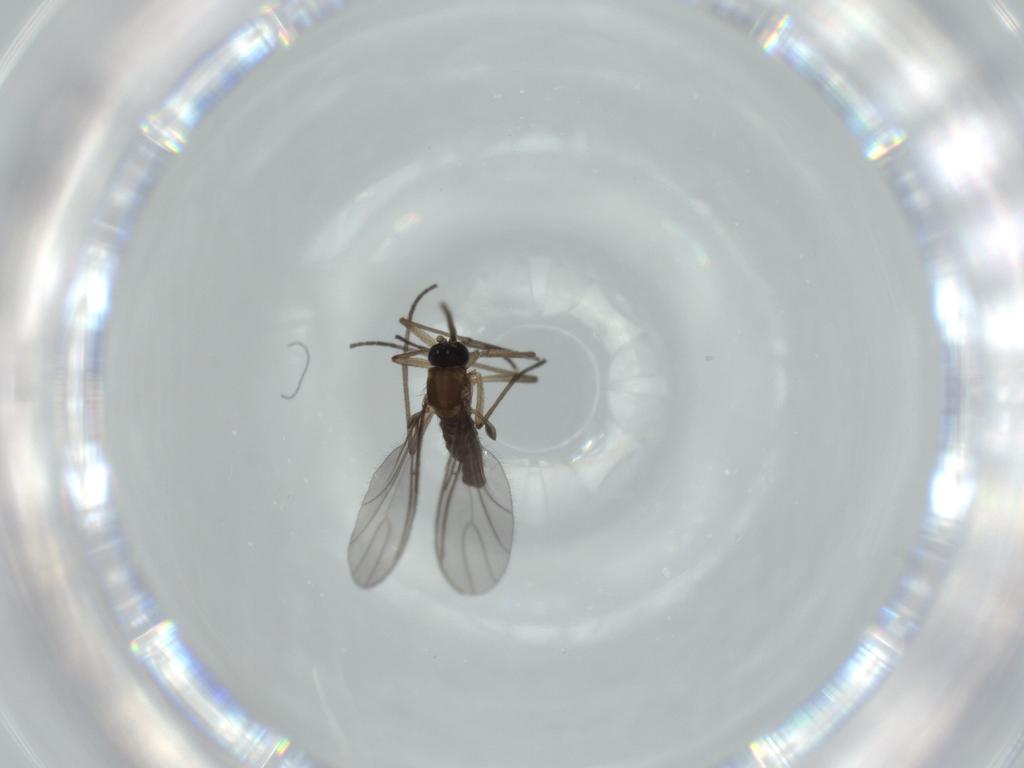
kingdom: Animalia
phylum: Arthropoda
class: Insecta
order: Diptera
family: Sciaridae
